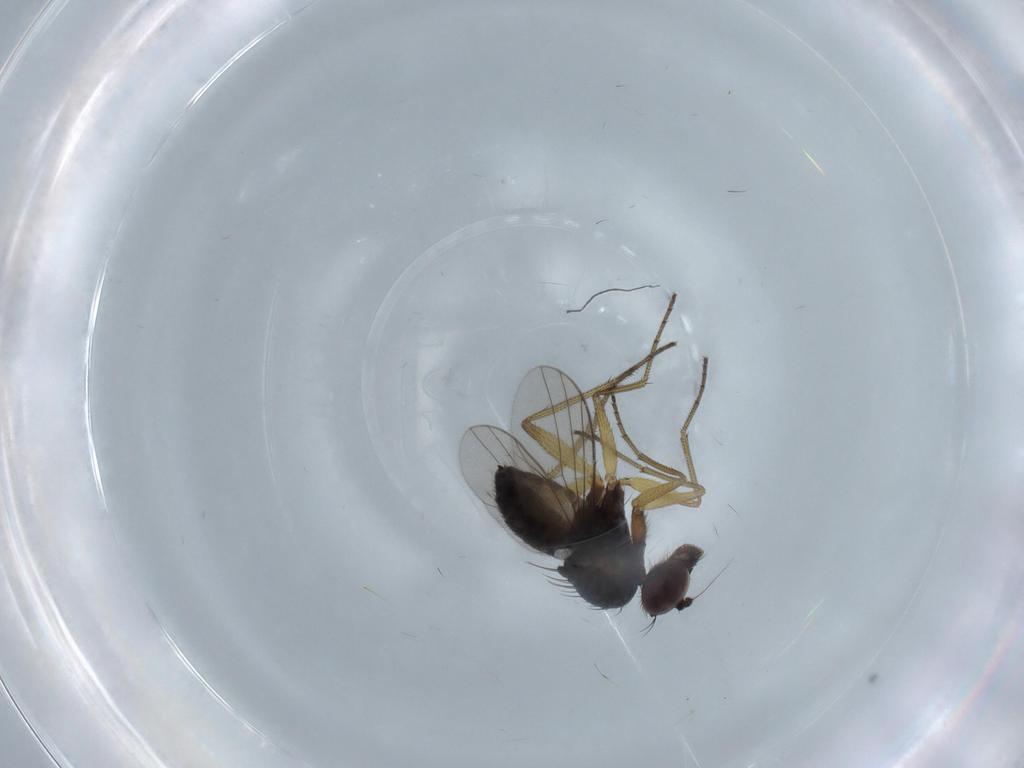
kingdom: Animalia
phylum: Arthropoda
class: Insecta
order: Diptera
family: Dolichopodidae
